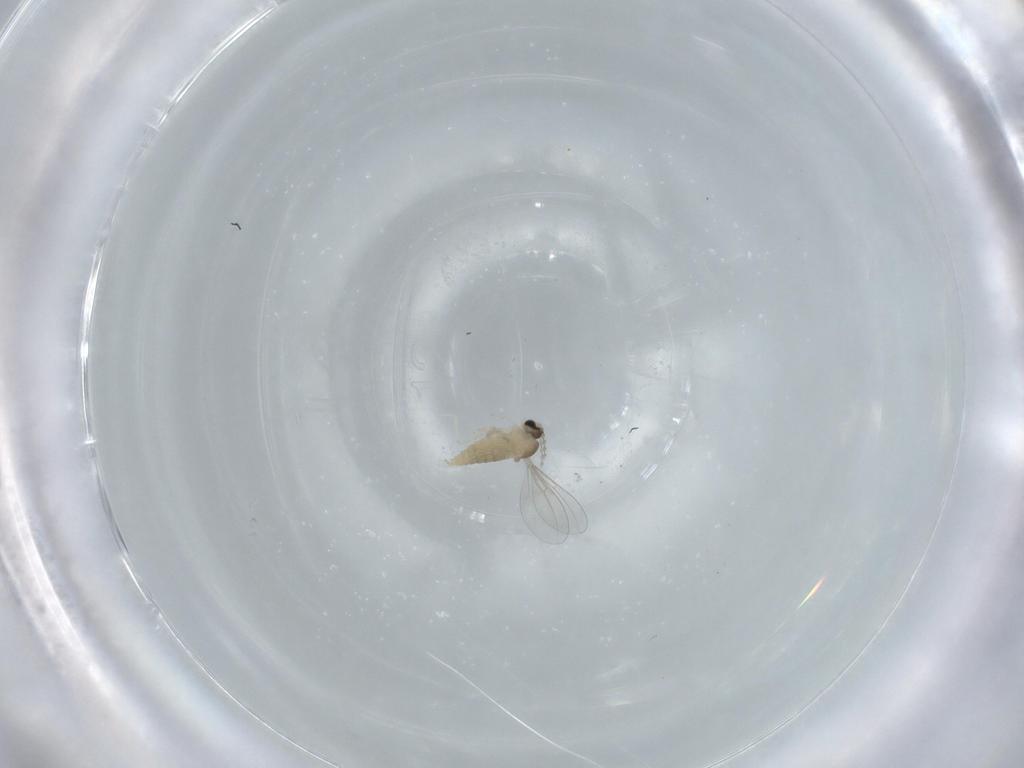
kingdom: Animalia
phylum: Arthropoda
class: Insecta
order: Diptera
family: Cecidomyiidae
